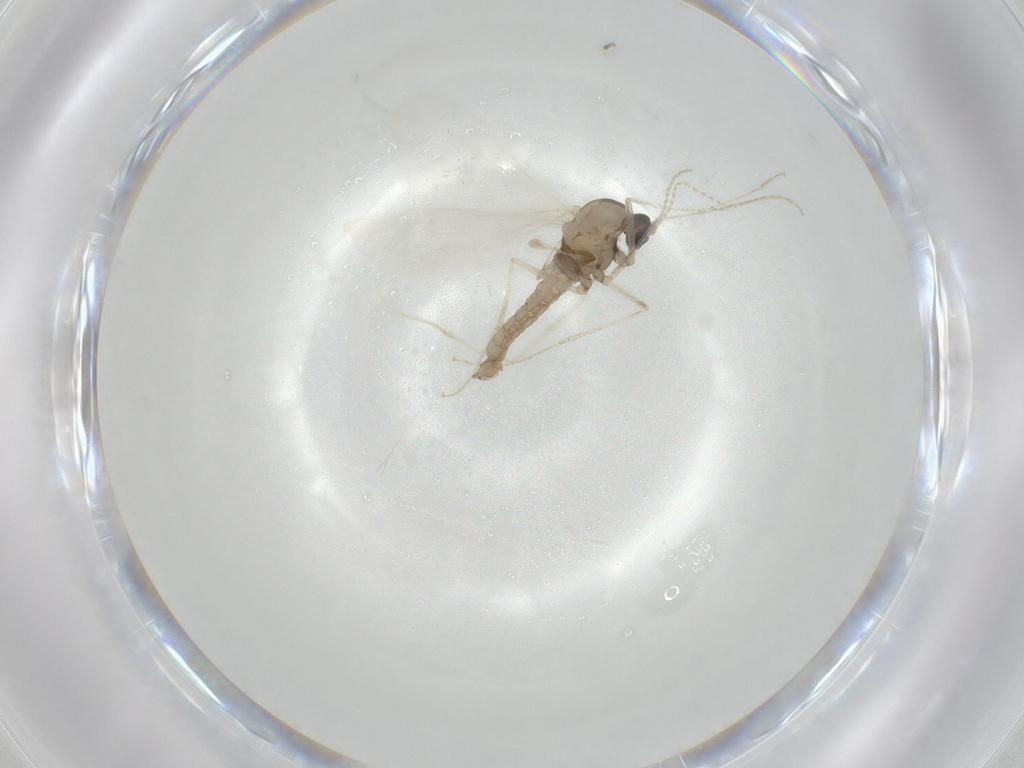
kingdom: Animalia
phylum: Arthropoda
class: Insecta
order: Diptera
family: Cecidomyiidae
